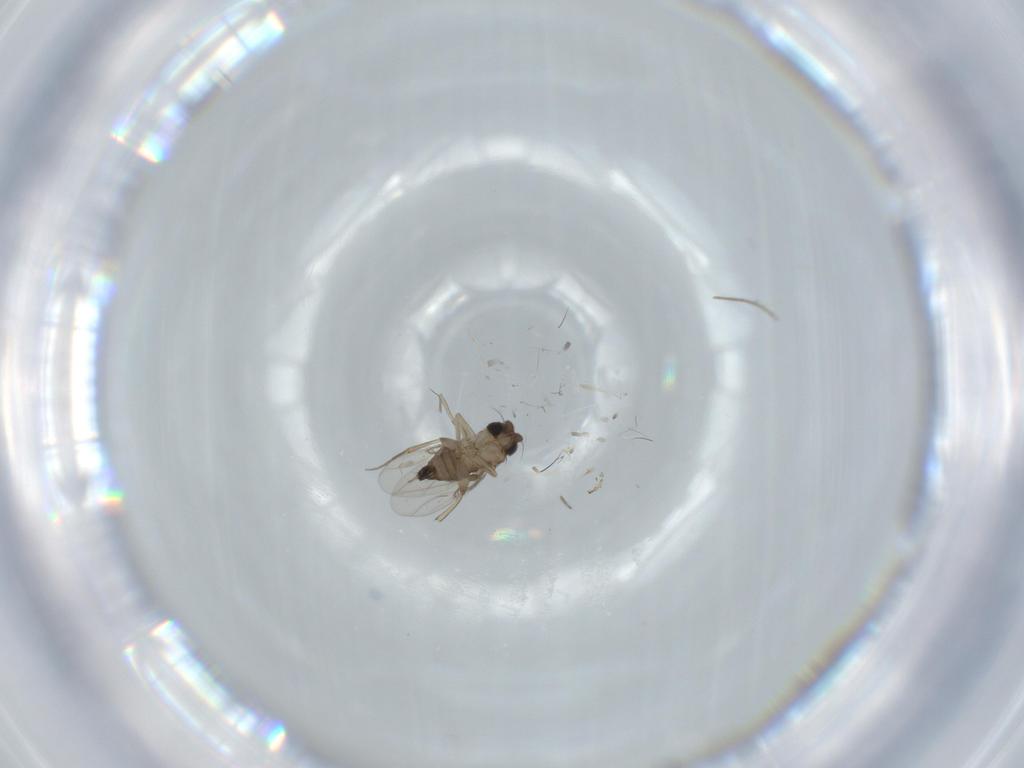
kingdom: Animalia
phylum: Arthropoda
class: Insecta
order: Diptera
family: Phoridae
